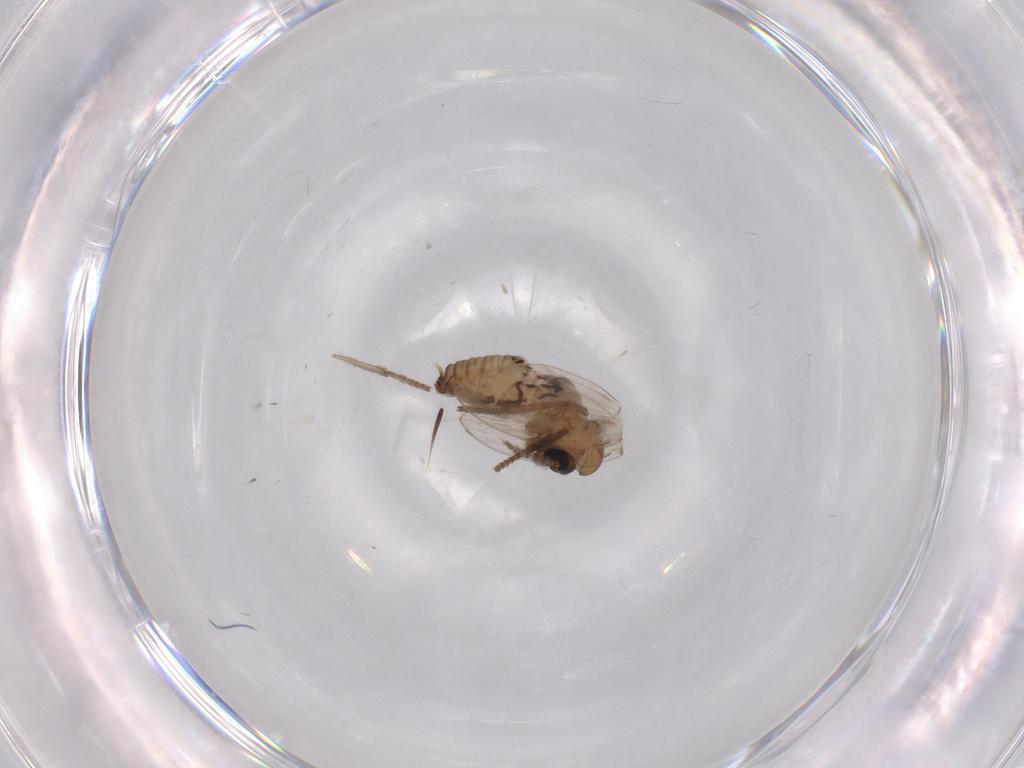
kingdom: Animalia
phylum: Arthropoda
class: Insecta
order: Diptera
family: Psychodidae
